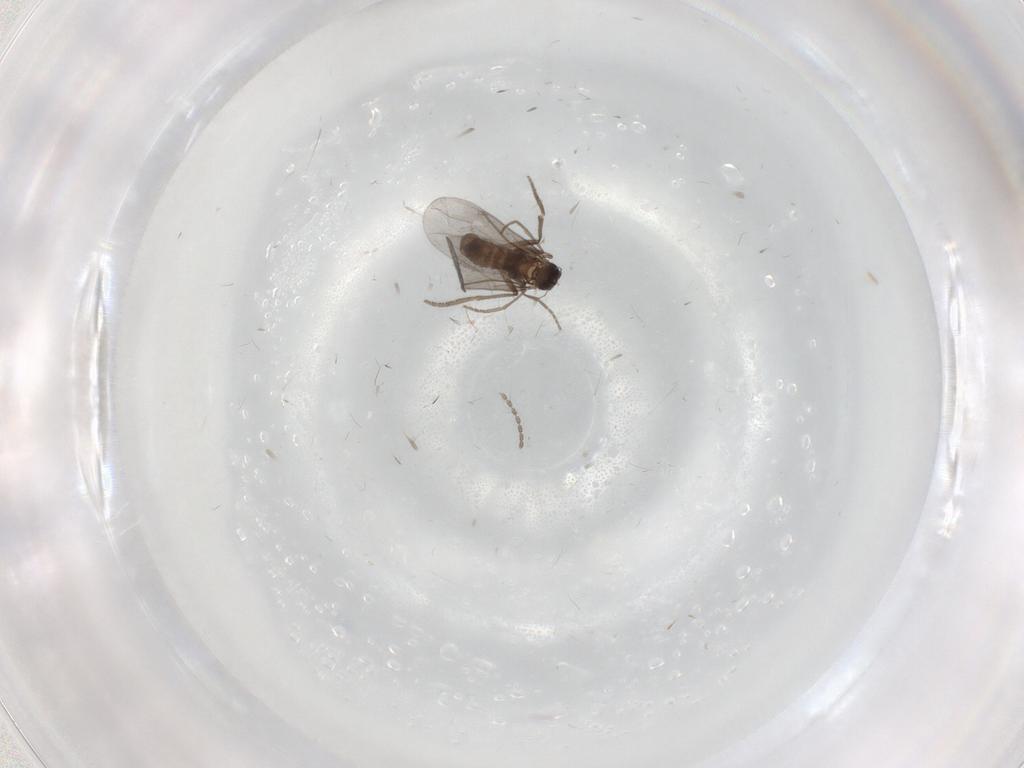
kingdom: Animalia
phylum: Arthropoda
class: Insecta
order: Diptera
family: Phoridae
